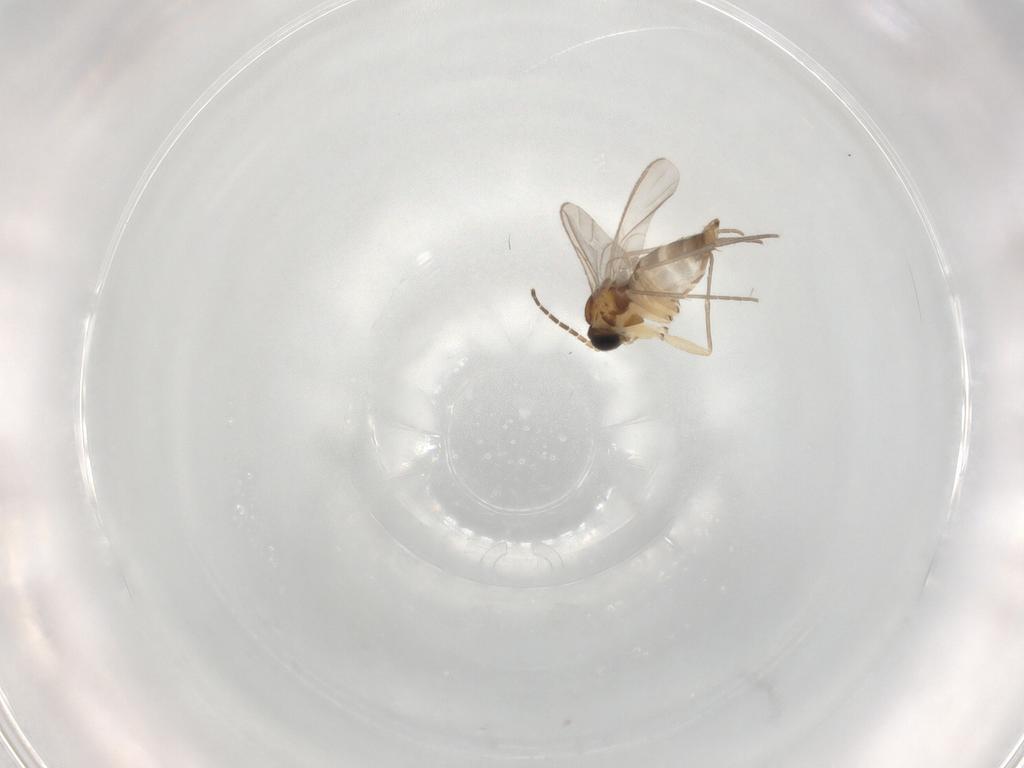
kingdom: Animalia
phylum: Arthropoda
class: Insecta
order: Diptera
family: Sciaridae
